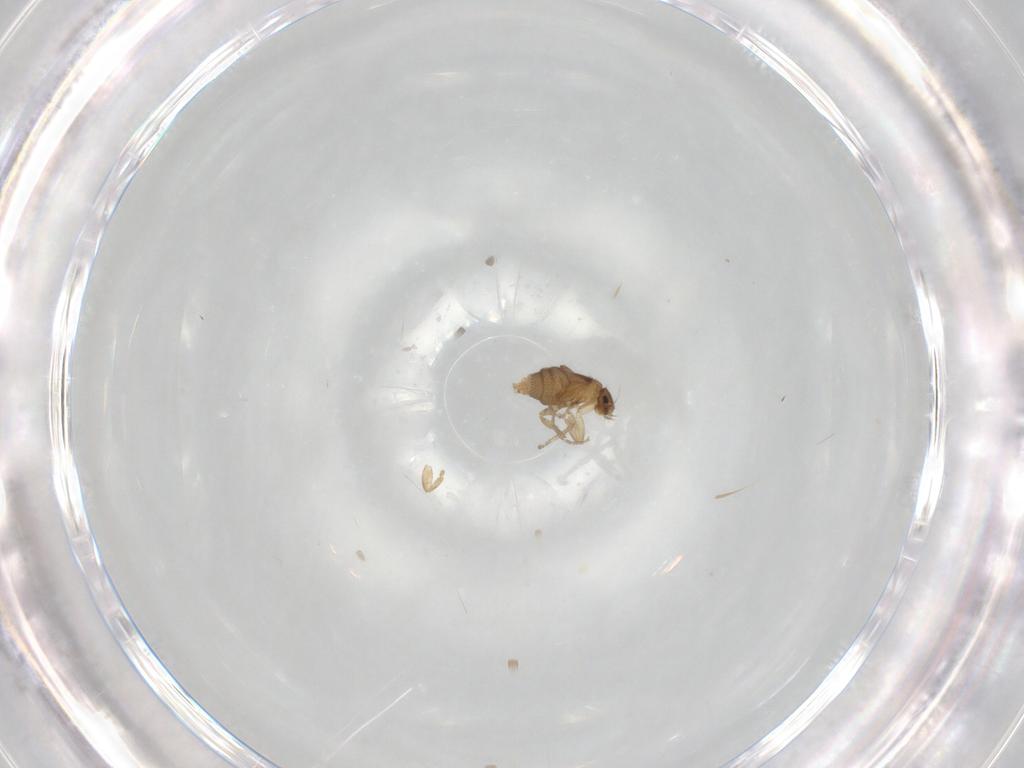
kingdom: Animalia
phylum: Arthropoda
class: Insecta
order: Diptera
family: Phoridae
